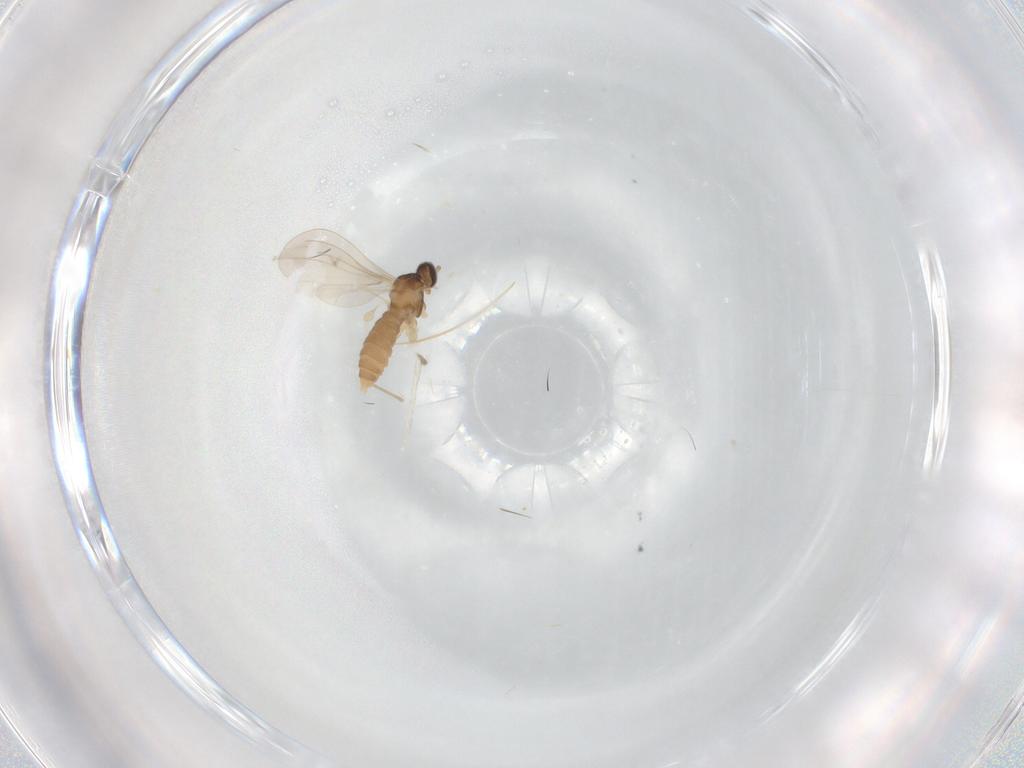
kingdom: Animalia
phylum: Arthropoda
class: Insecta
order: Diptera
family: Cecidomyiidae
